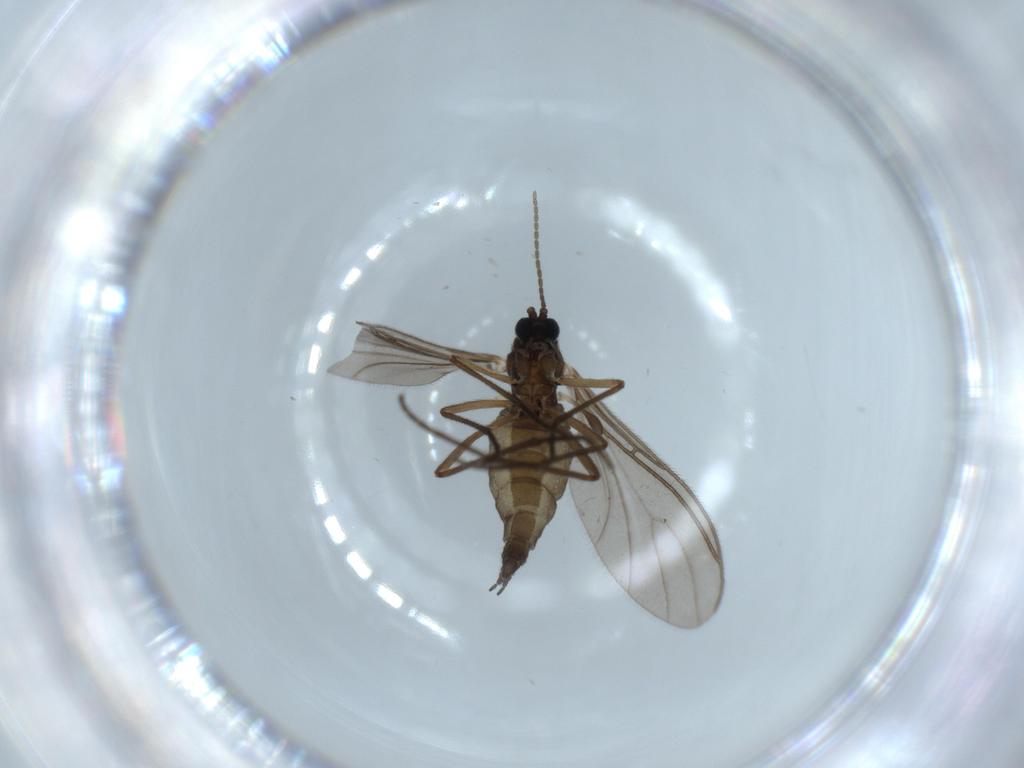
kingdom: Animalia
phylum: Arthropoda
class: Insecta
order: Diptera
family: Sciaridae
